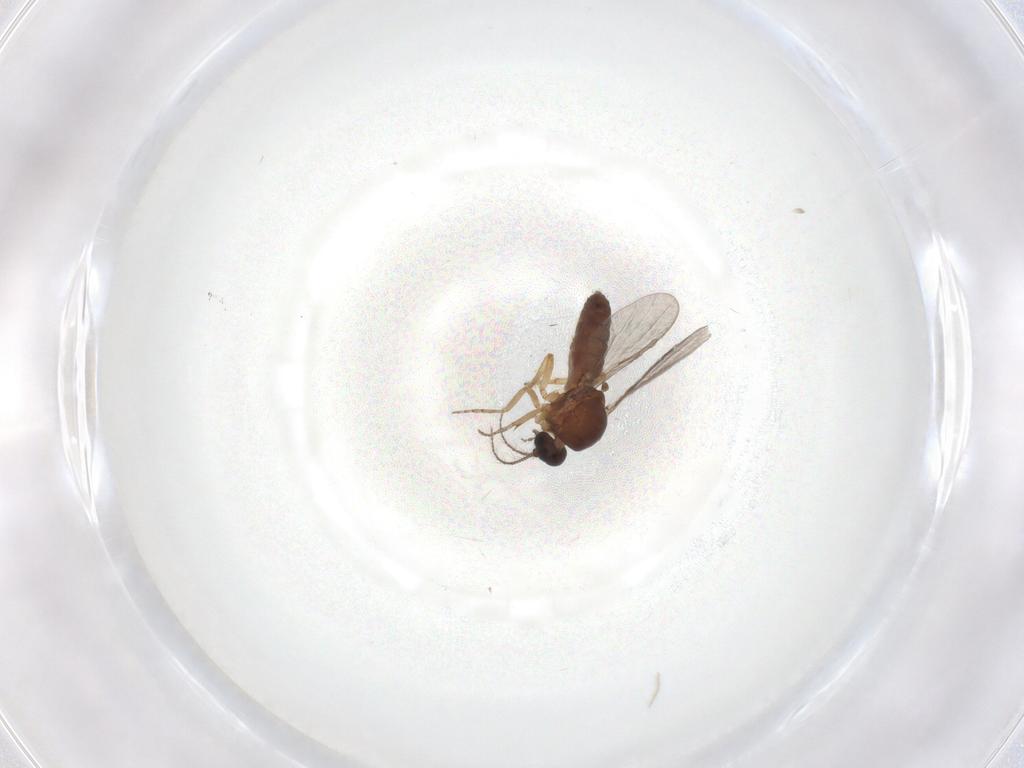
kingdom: Animalia
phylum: Arthropoda
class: Insecta
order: Diptera
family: Ceratopogonidae
